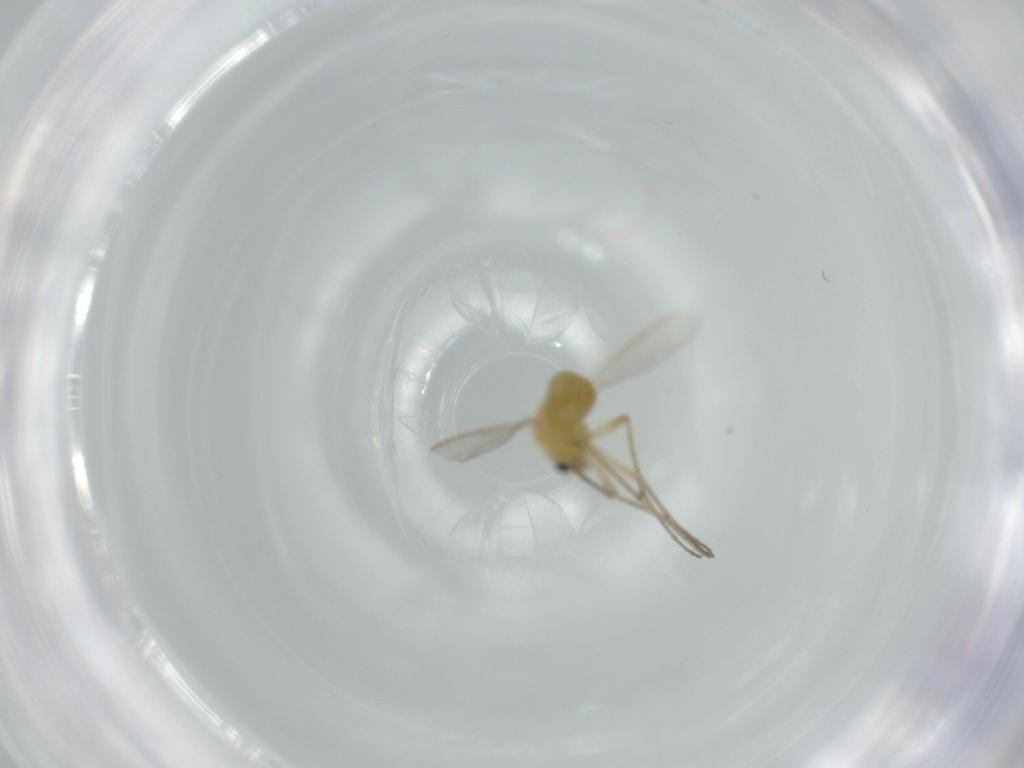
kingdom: Animalia
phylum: Arthropoda
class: Insecta
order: Diptera
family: Chironomidae
